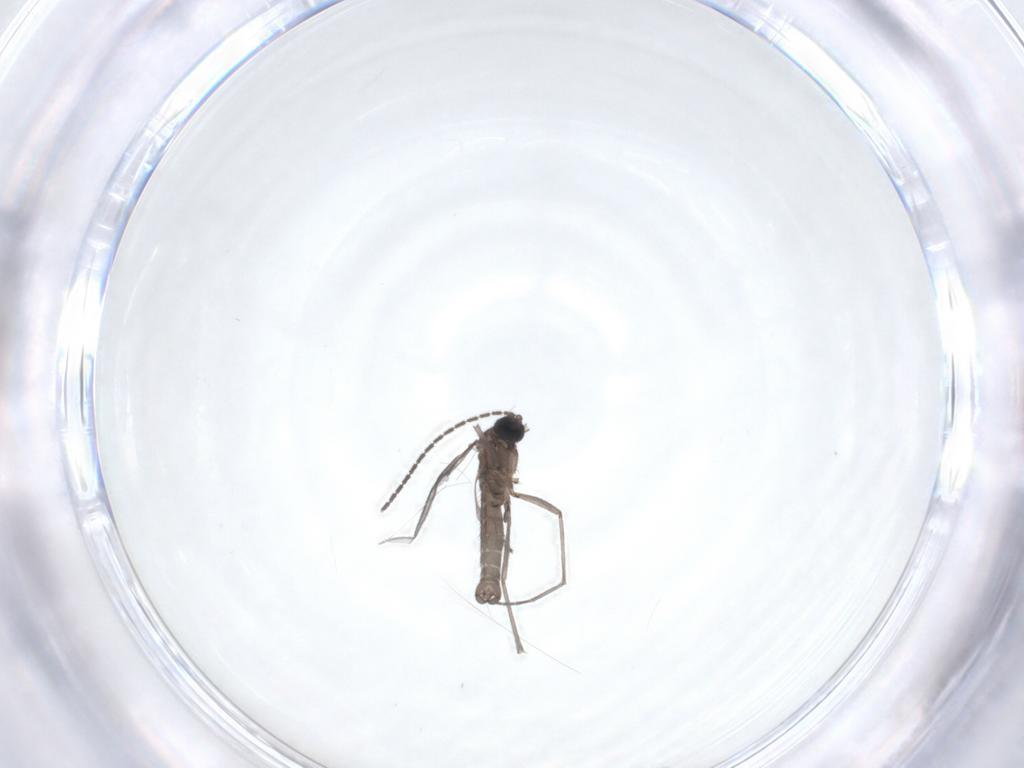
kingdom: Animalia
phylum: Arthropoda
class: Insecta
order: Diptera
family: Sciaridae
